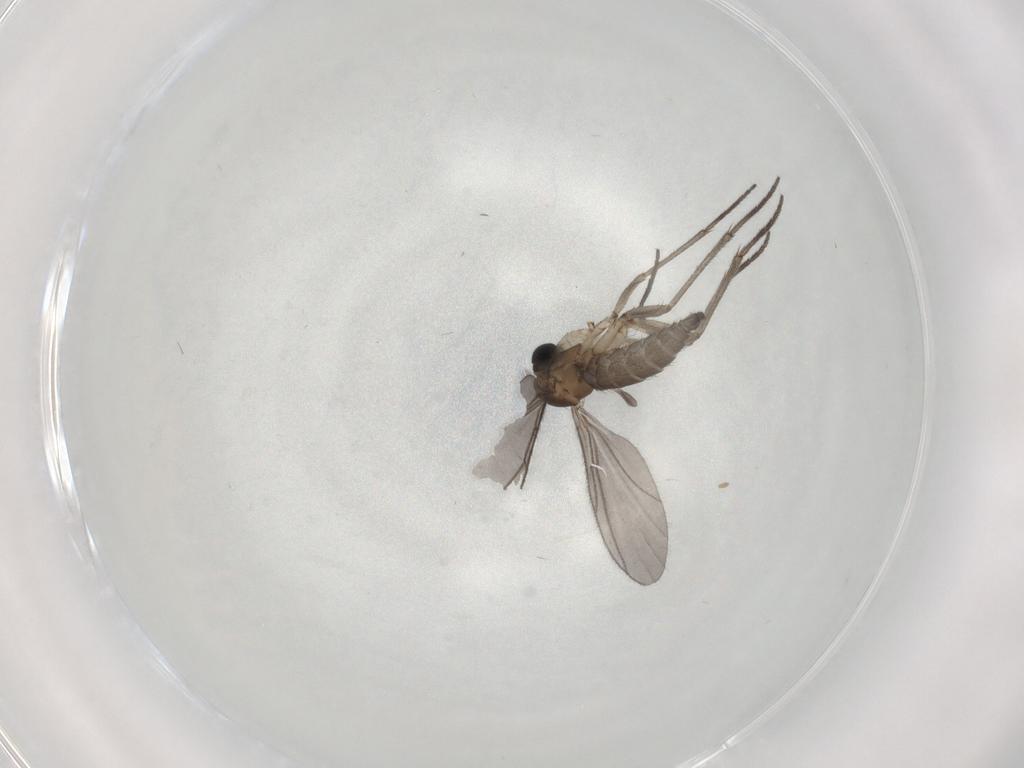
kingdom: Animalia
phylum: Arthropoda
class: Insecta
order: Diptera
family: Sciaridae
